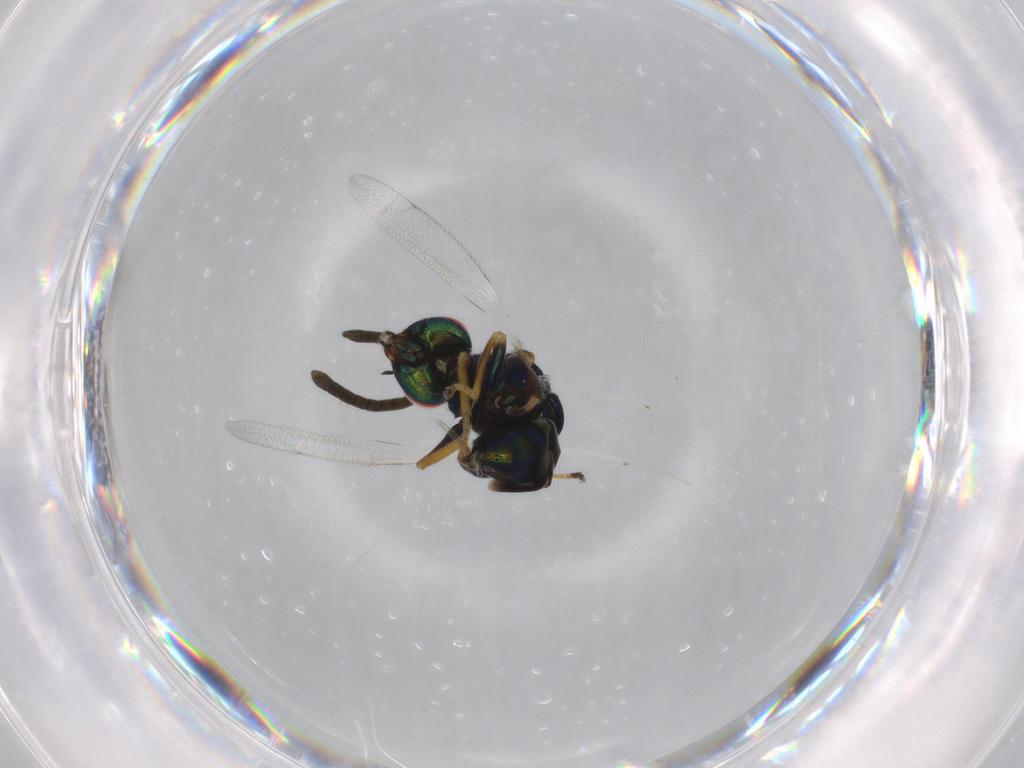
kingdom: Animalia
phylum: Arthropoda
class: Insecta
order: Hymenoptera
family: Torymidae
